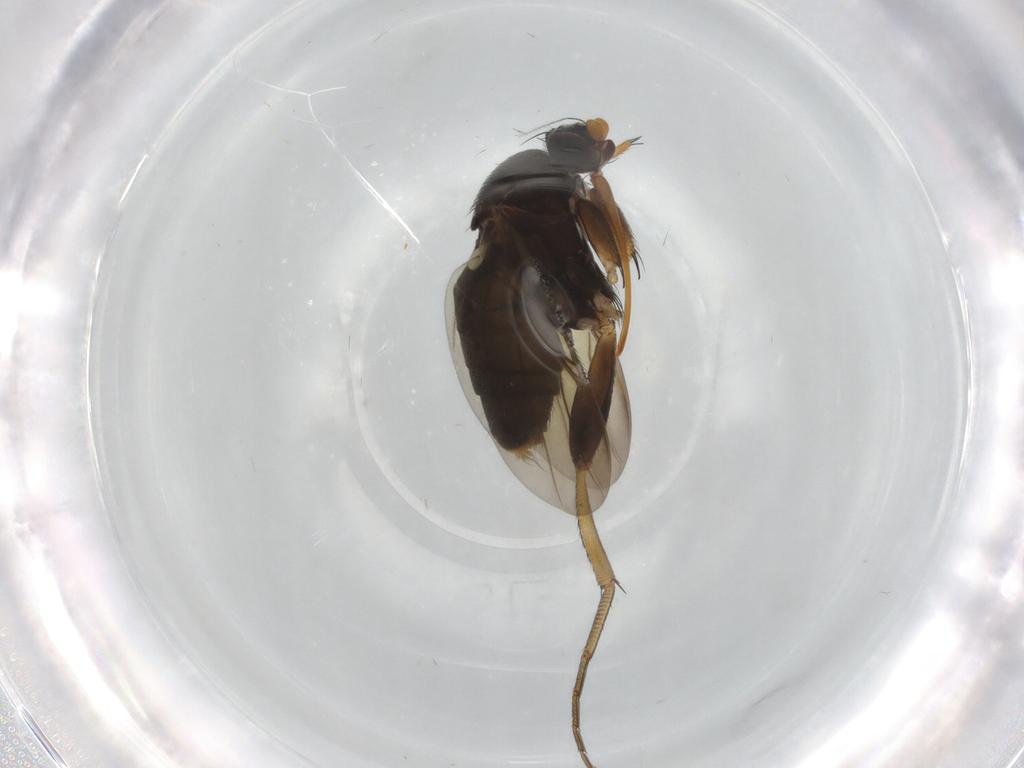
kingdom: Animalia
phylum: Arthropoda
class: Insecta
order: Diptera
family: Phoridae
